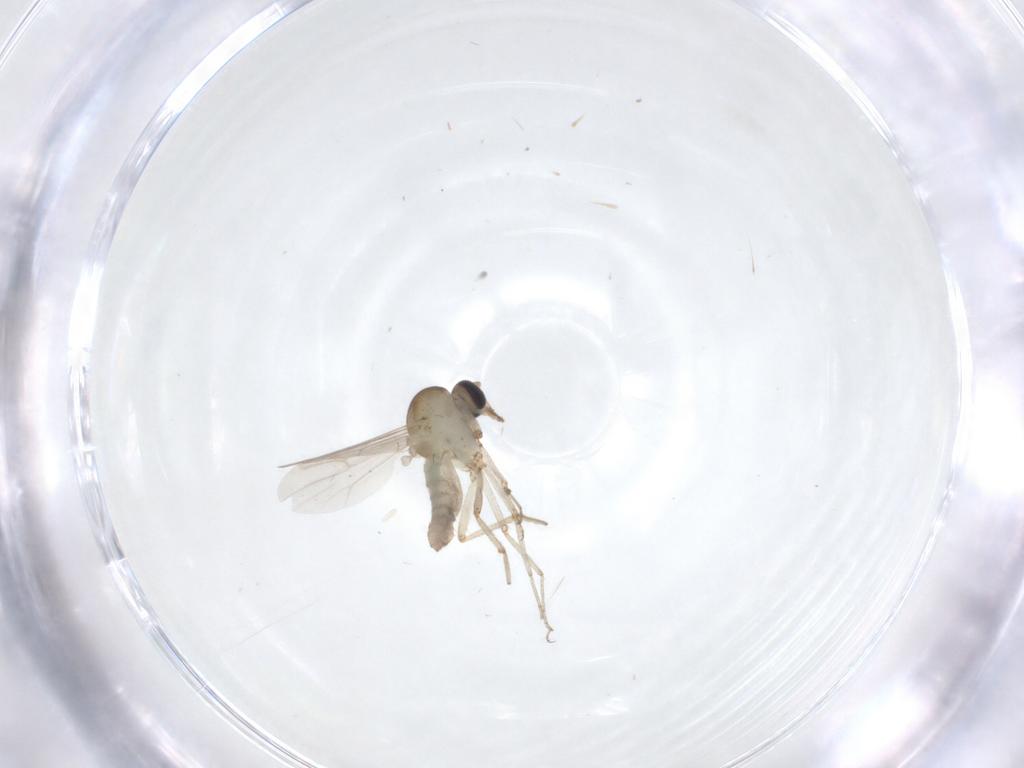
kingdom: Animalia
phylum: Arthropoda
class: Insecta
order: Diptera
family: Ceratopogonidae
